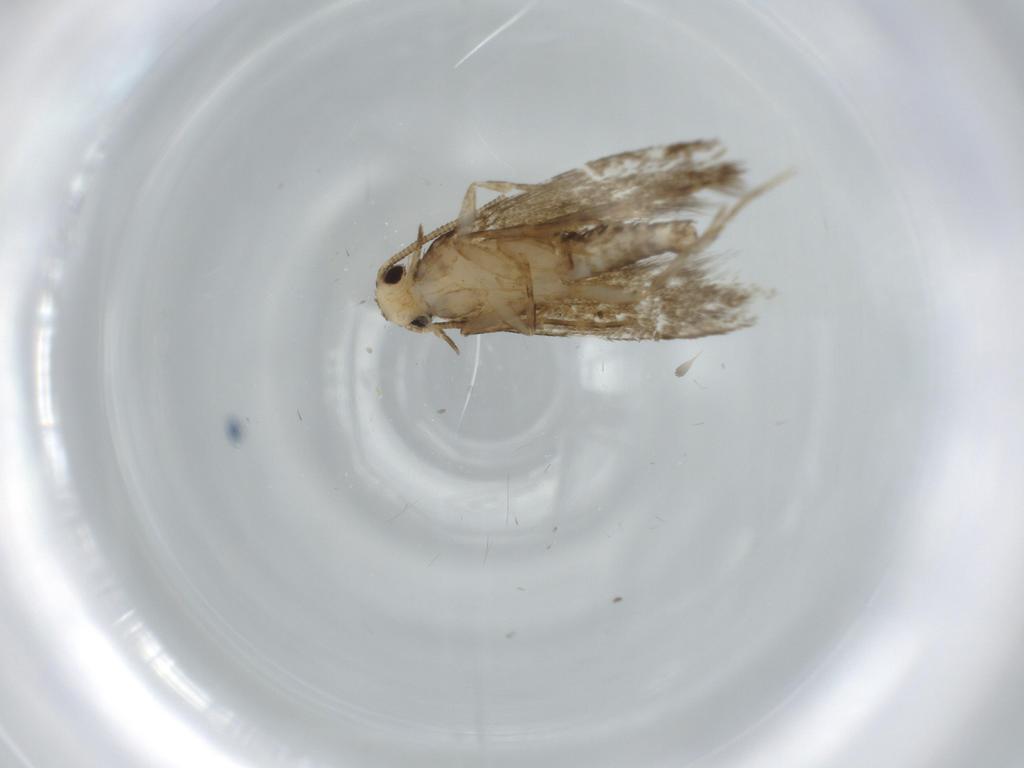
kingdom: Animalia
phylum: Arthropoda
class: Insecta
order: Lepidoptera
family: Tineidae
